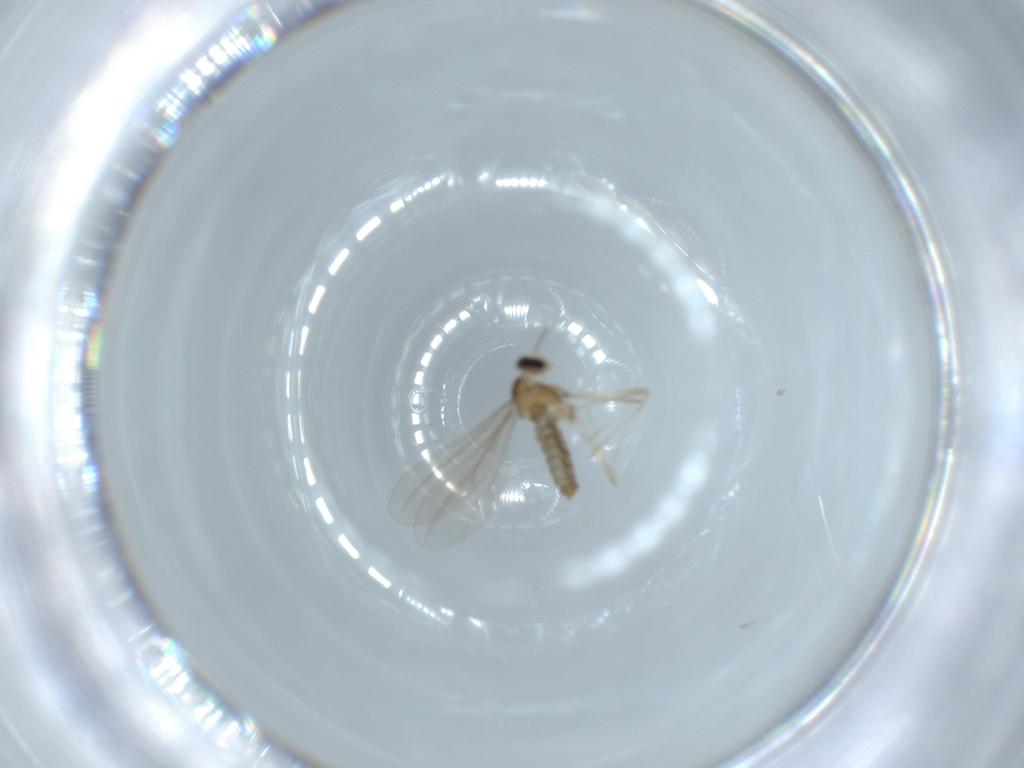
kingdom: Animalia
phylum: Arthropoda
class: Insecta
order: Diptera
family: Cecidomyiidae
